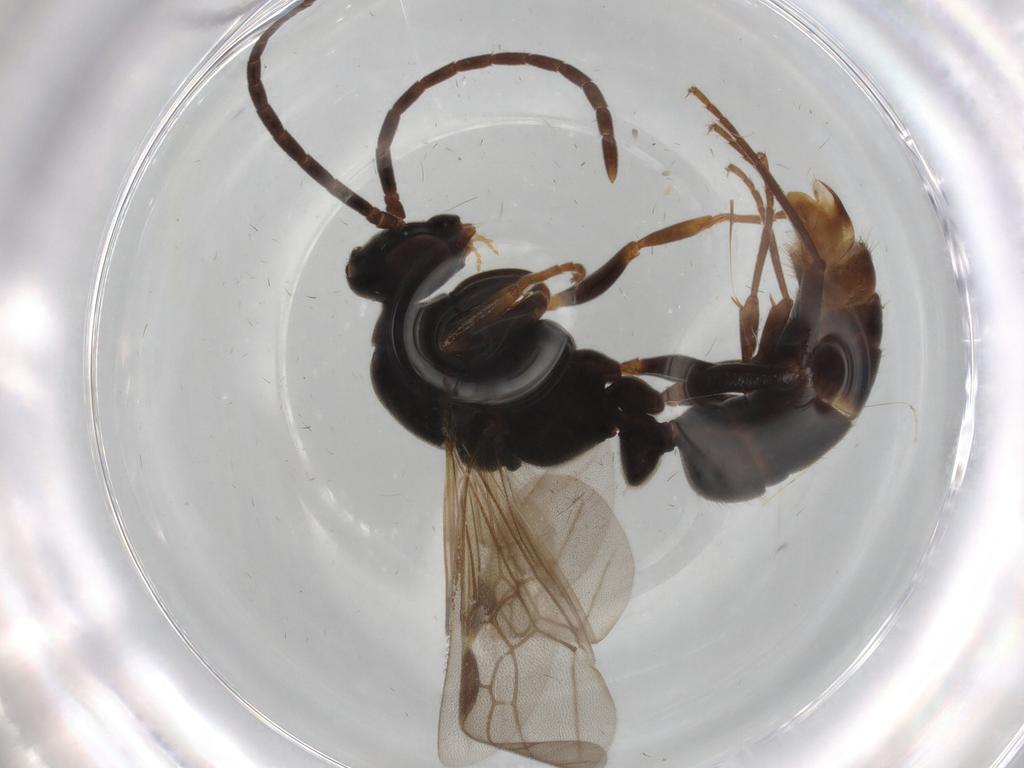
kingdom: Animalia
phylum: Arthropoda
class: Insecta
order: Hymenoptera
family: Formicidae
